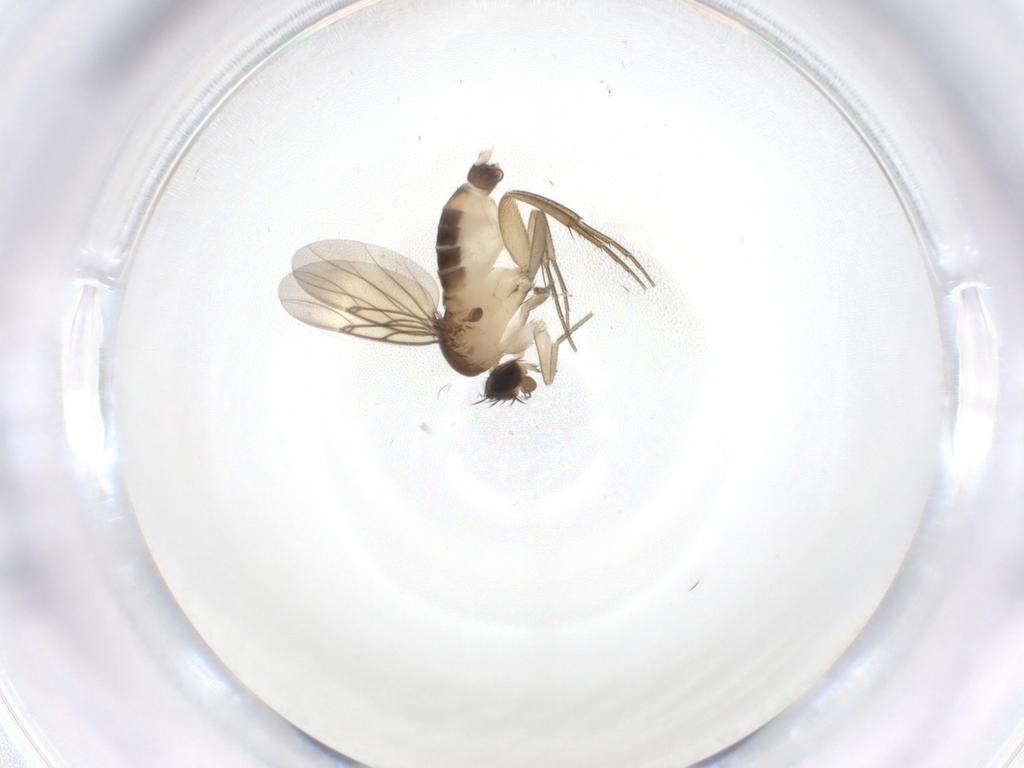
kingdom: Animalia
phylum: Arthropoda
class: Insecta
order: Diptera
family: Cecidomyiidae
